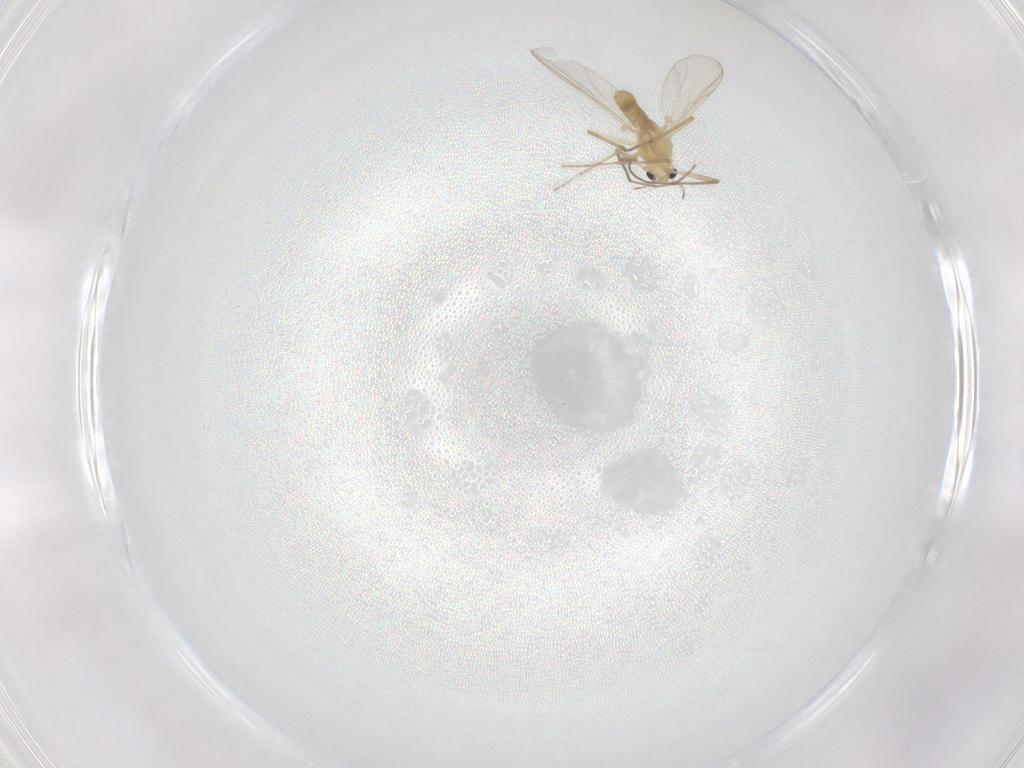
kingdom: Animalia
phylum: Arthropoda
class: Insecta
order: Diptera
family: Chironomidae
